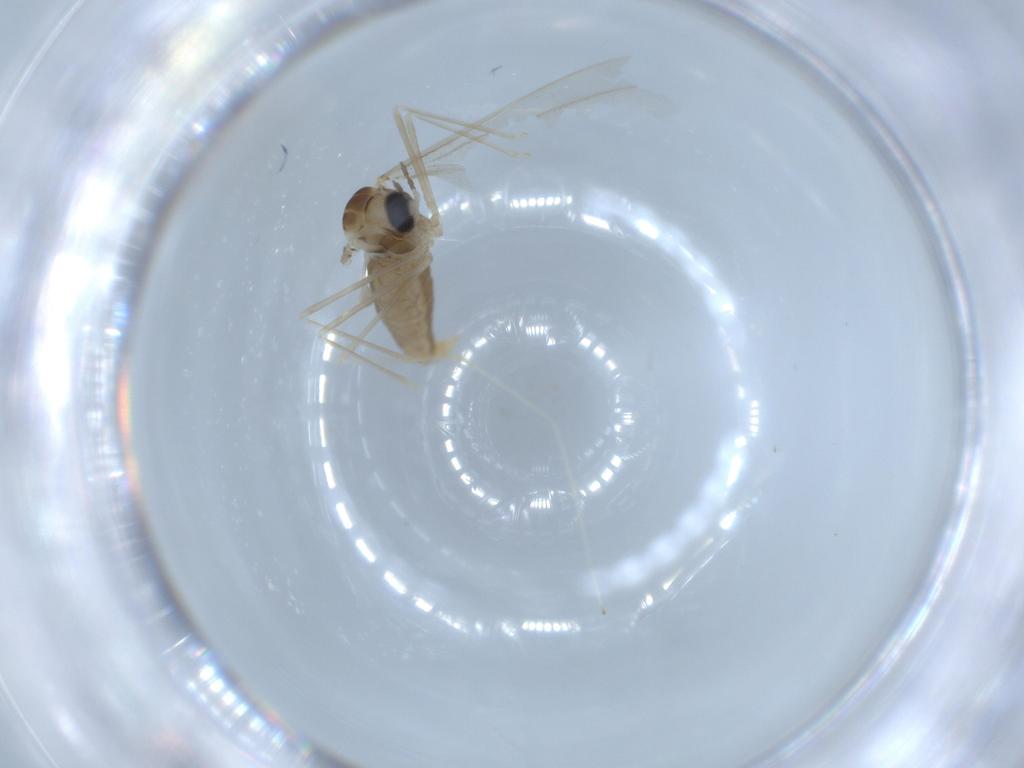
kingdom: Animalia
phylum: Arthropoda
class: Insecta
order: Diptera
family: Cecidomyiidae
